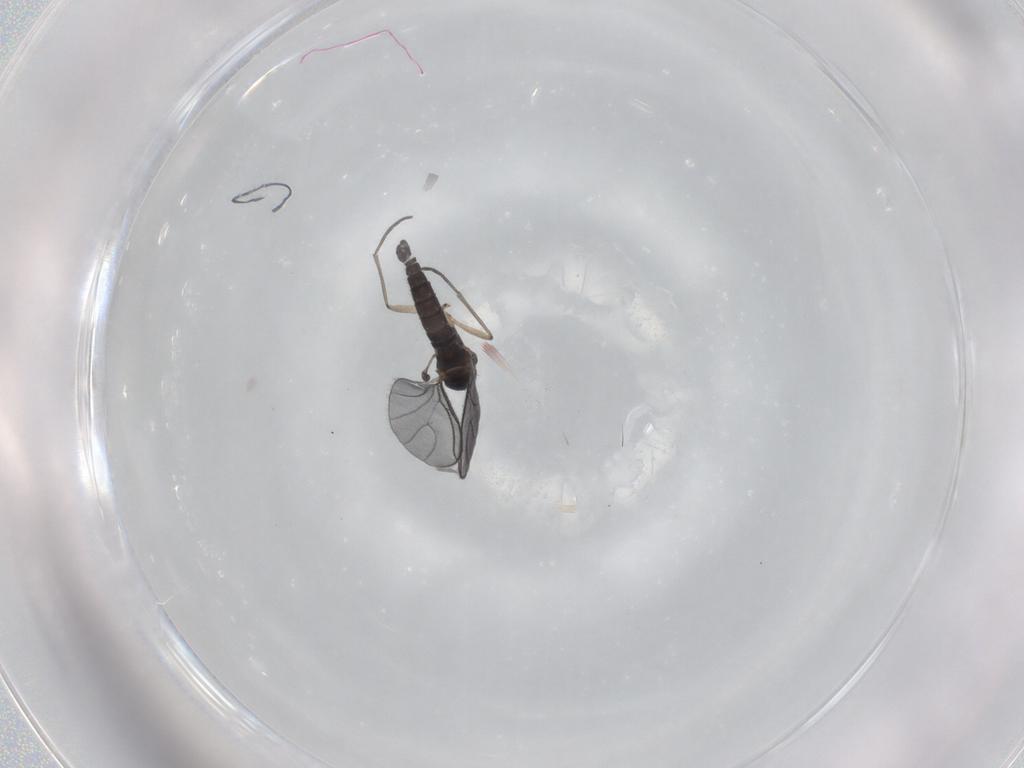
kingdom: Animalia
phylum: Arthropoda
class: Insecta
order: Diptera
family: Sciaridae
